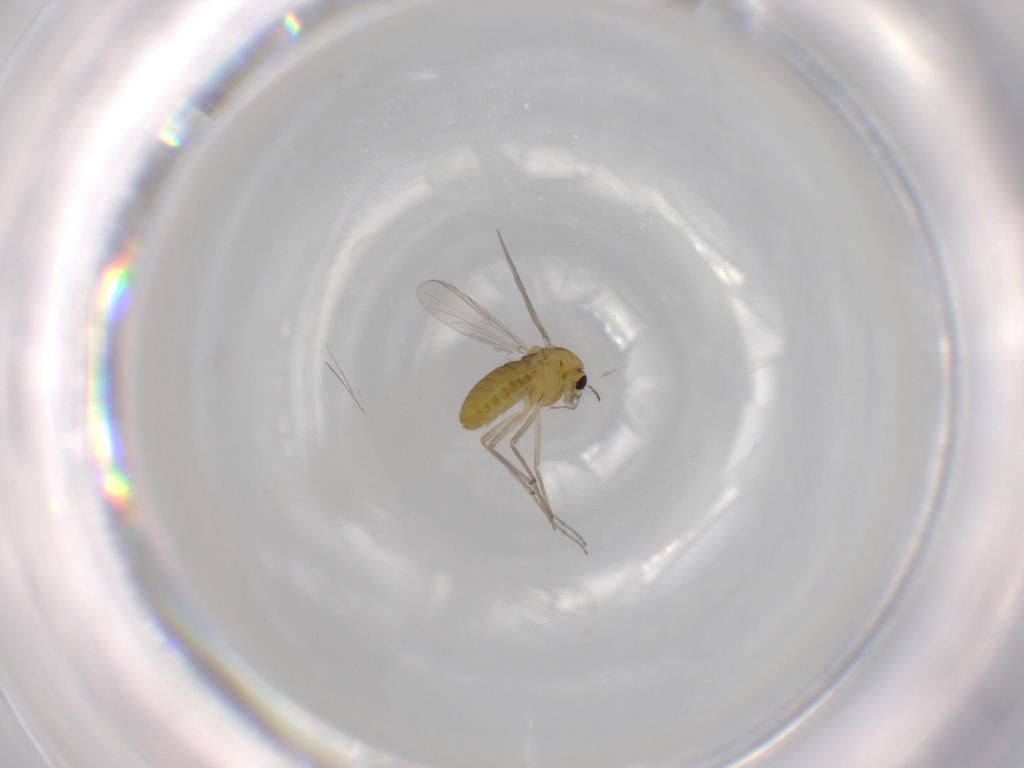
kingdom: Animalia
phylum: Arthropoda
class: Insecta
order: Diptera
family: Chironomidae
